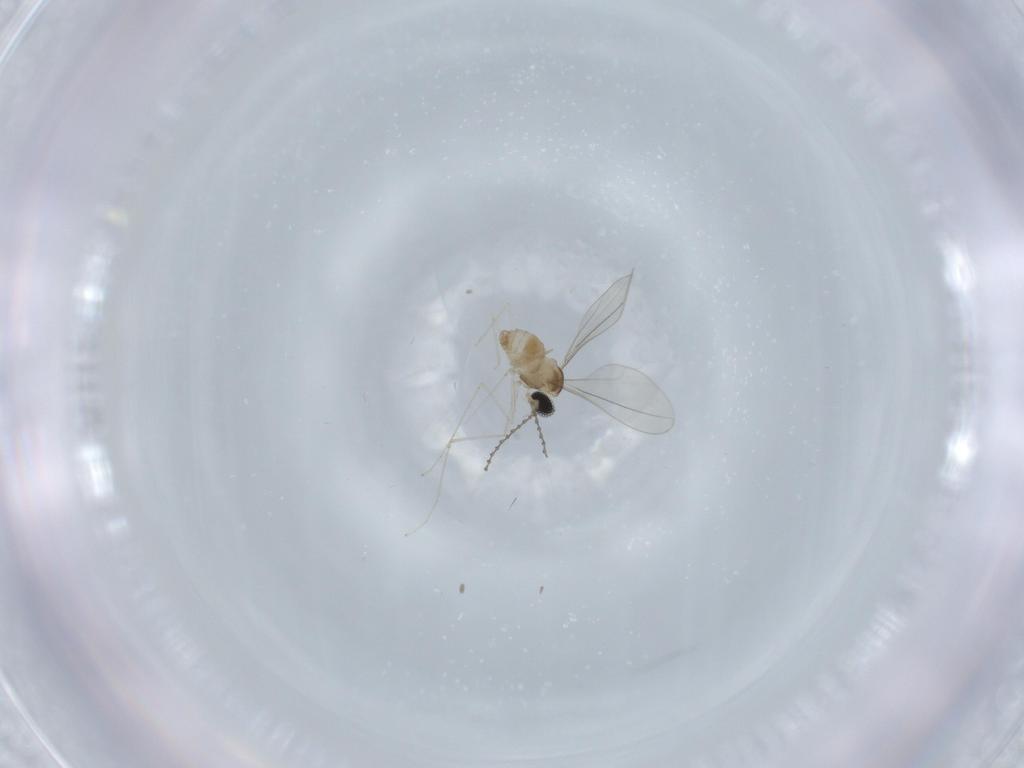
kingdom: Animalia
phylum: Arthropoda
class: Insecta
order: Diptera
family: Cecidomyiidae
